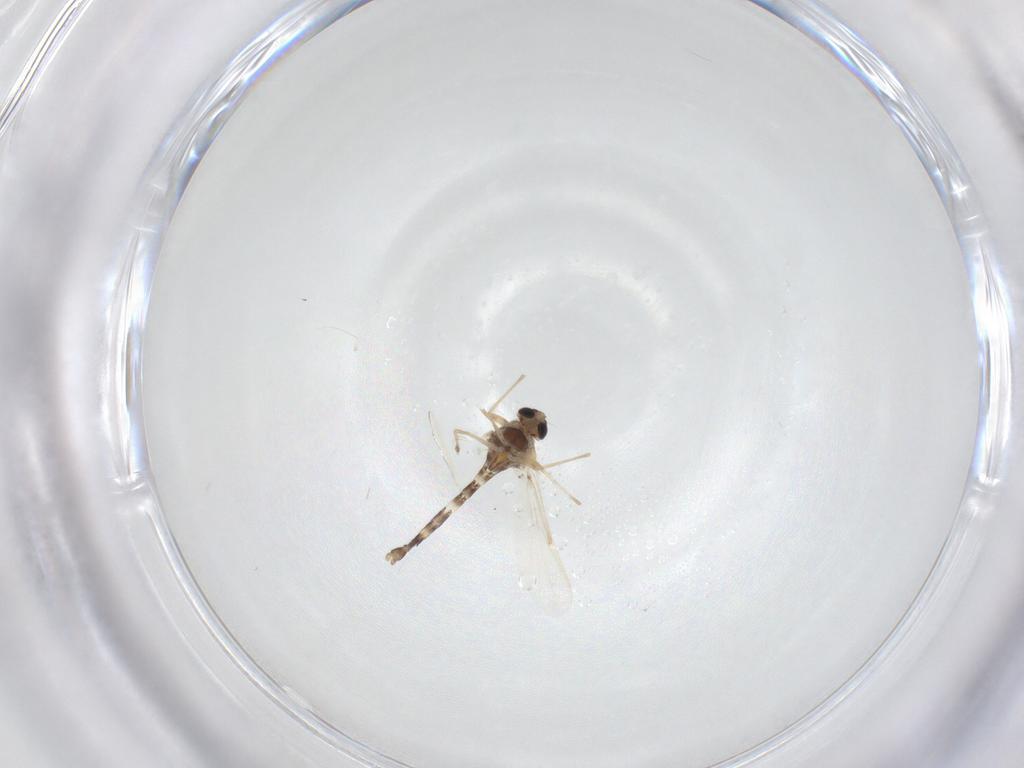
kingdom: Animalia
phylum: Arthropoda
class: Insecta
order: Diptera
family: Chironomidae
